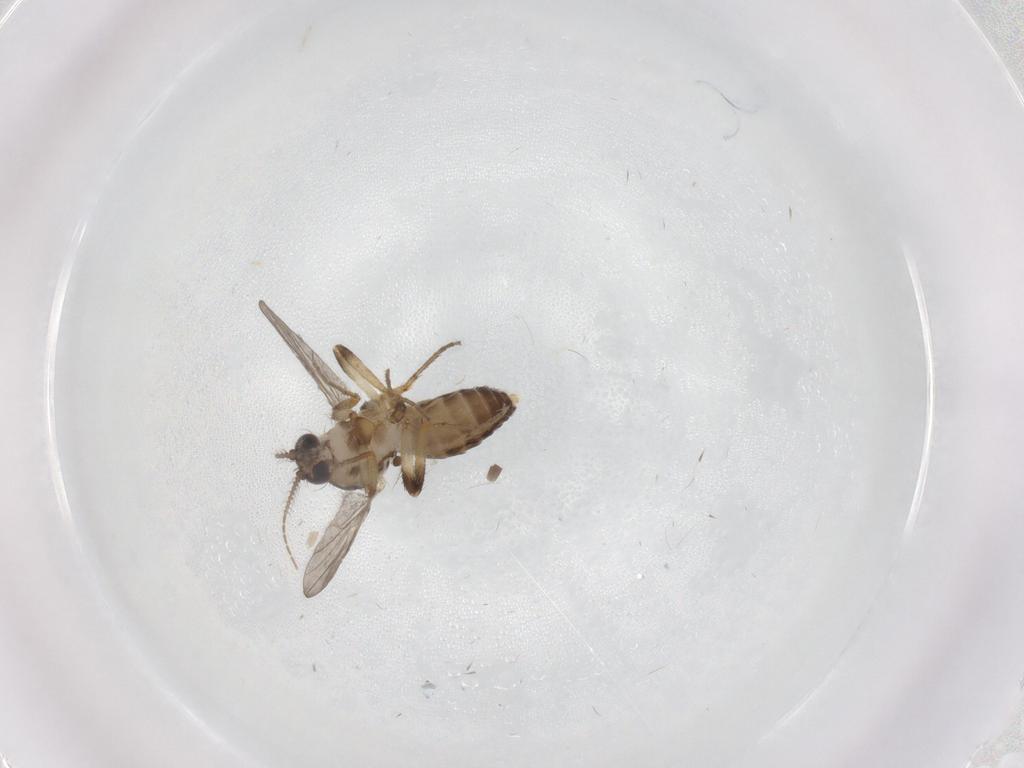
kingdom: Animalia
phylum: Arthropoda
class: Insecta
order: Diptera
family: Ceratopogonidae
